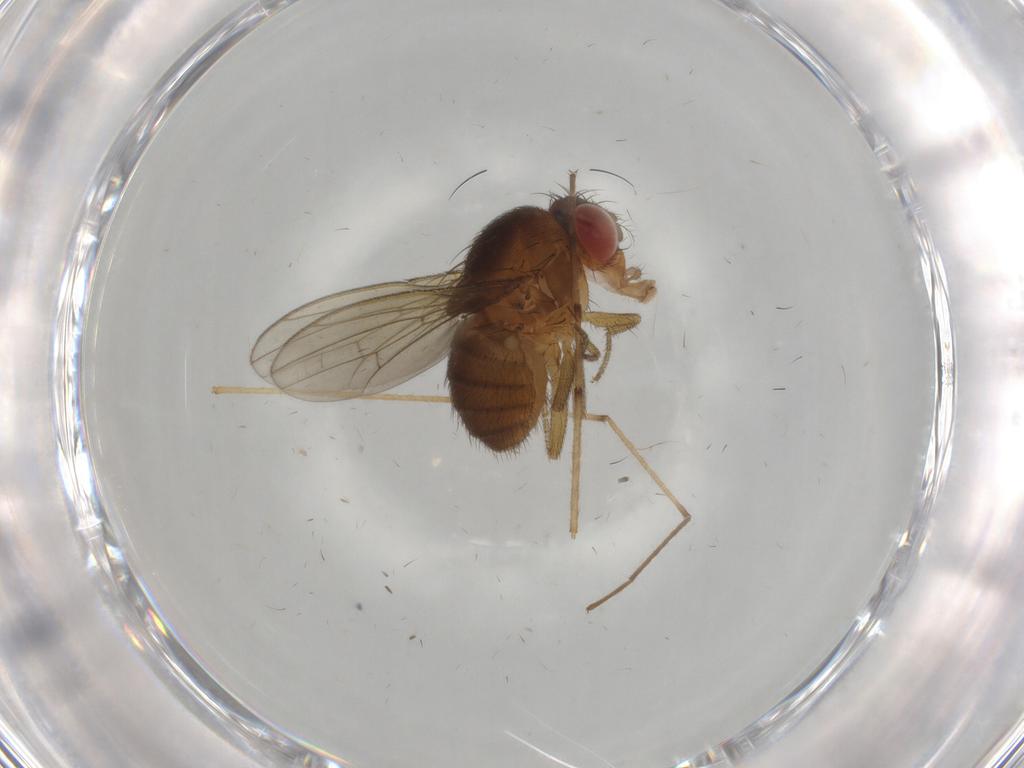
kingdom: Animalia
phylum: Arthropoda
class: Insecta
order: Diptera
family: Drosophilidae
